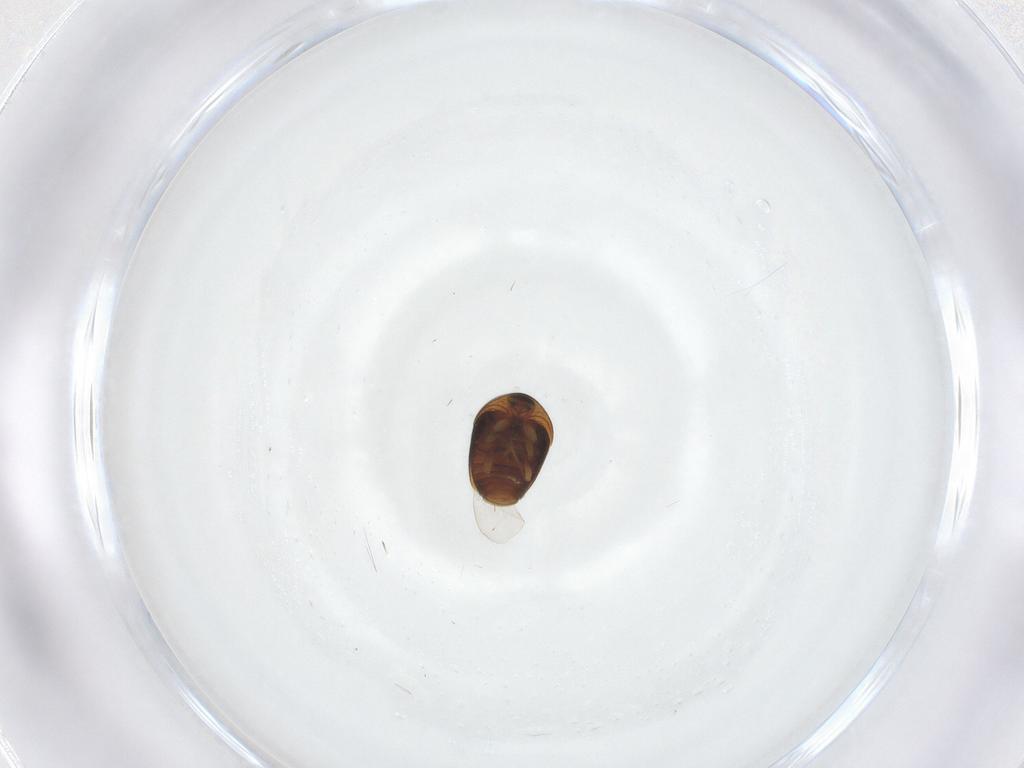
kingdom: Animalia
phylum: Arthropoda
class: Insecta
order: Coleoptera
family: Corylophidae
